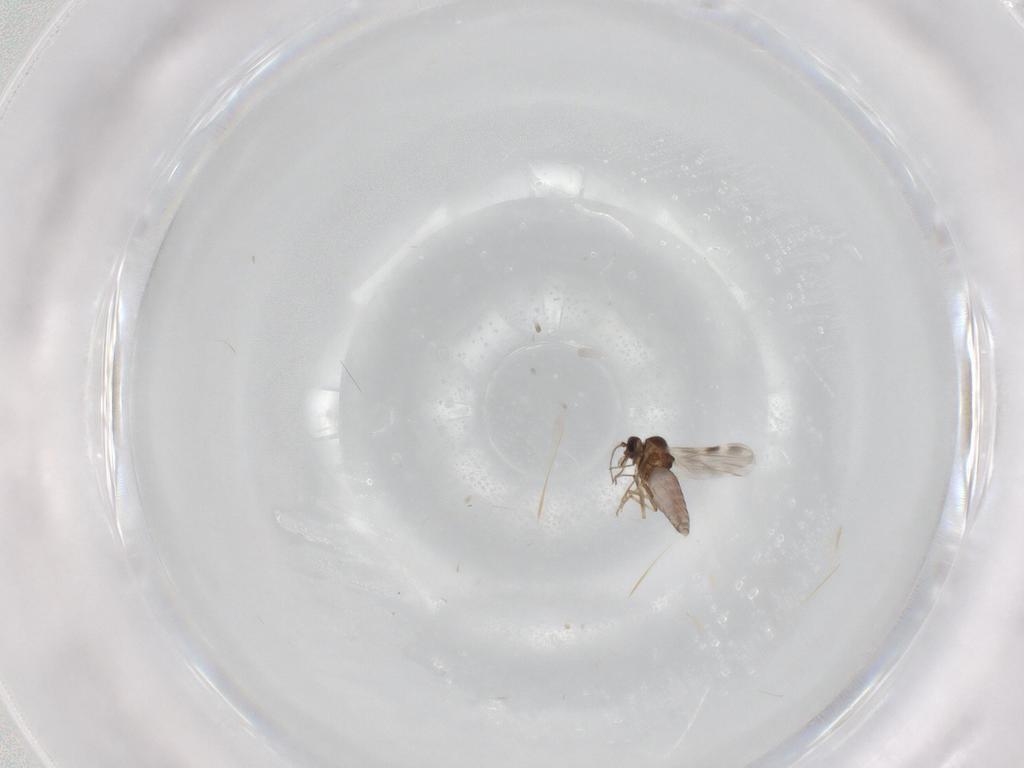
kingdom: Animalia
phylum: Arthropoda
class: Insecta
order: Diptera
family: Ceratopogonidae
